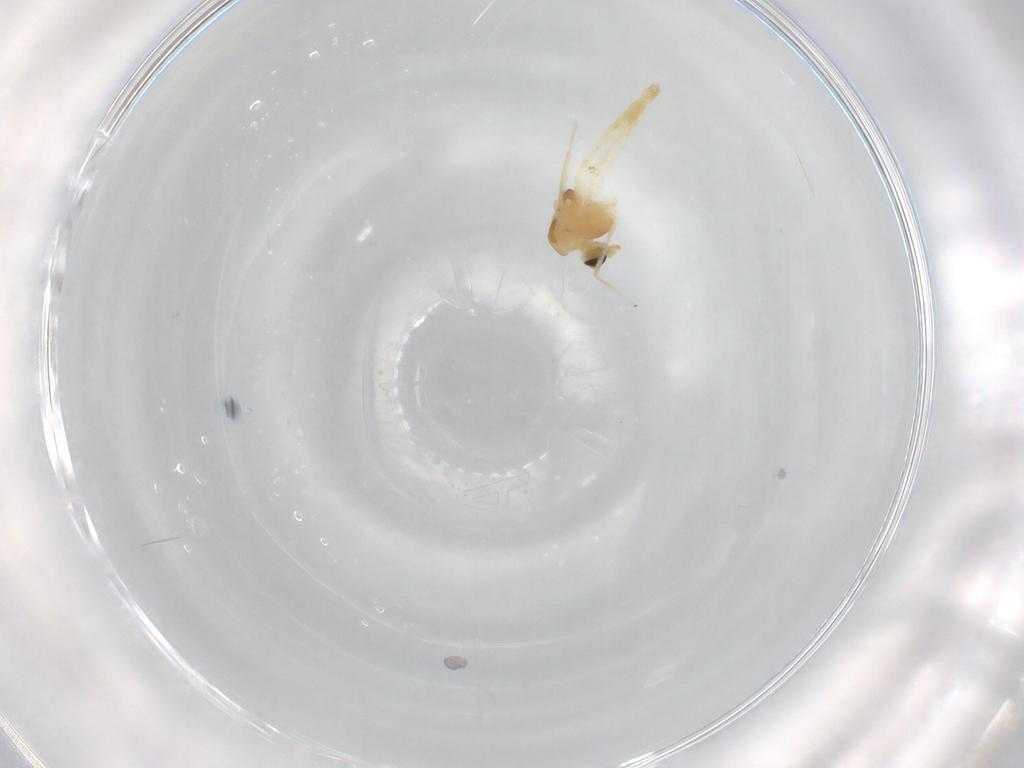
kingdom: Animalia
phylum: Arthropoda
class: Insecta
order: Diptera
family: Chironomidae
